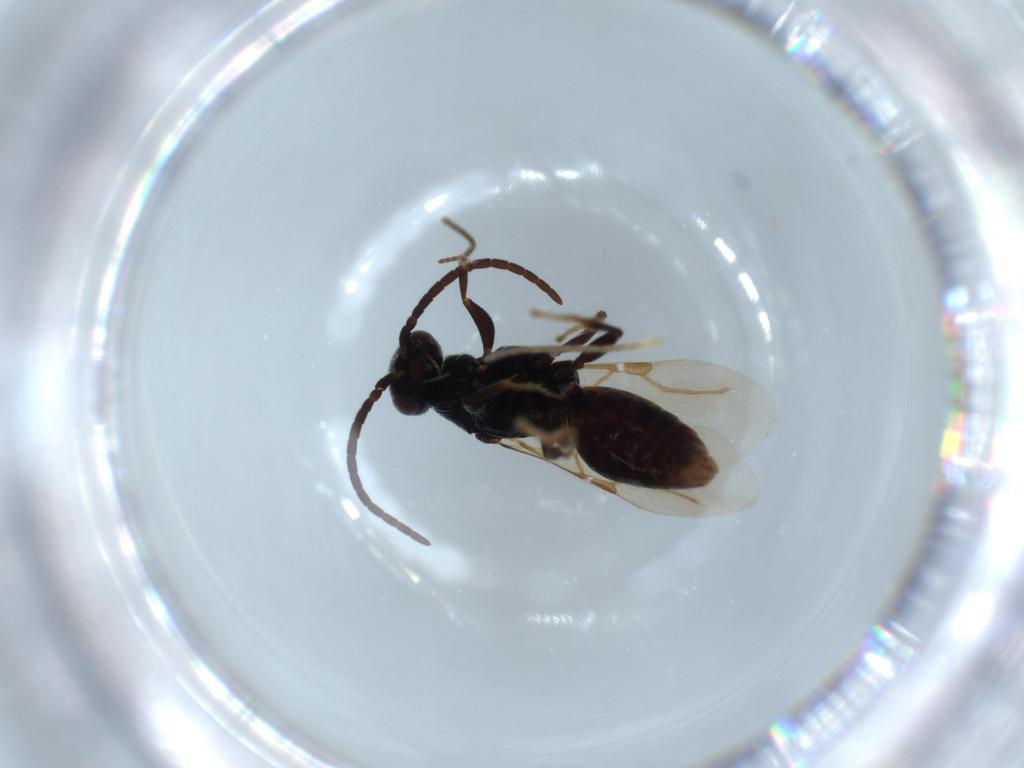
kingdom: Animalia
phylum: Arthropoda
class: Insecta
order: Hymenoptera
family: Bethylidae
